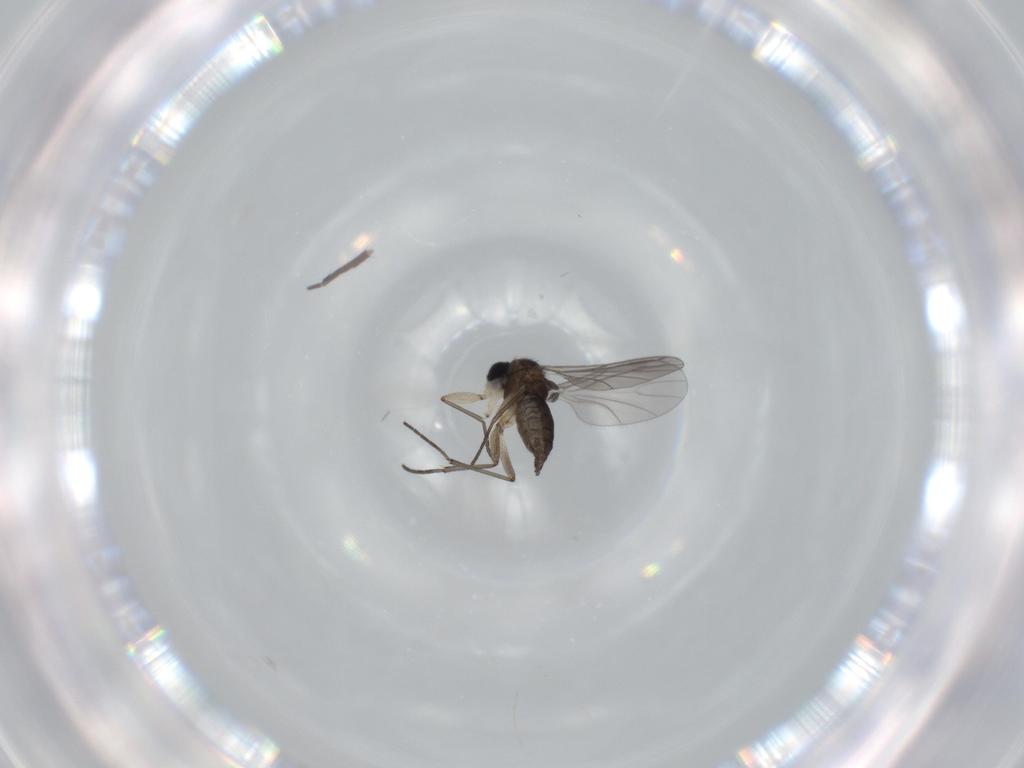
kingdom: Animalia
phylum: Arthropoda
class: Insecta
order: Diptera
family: Sciaridae
